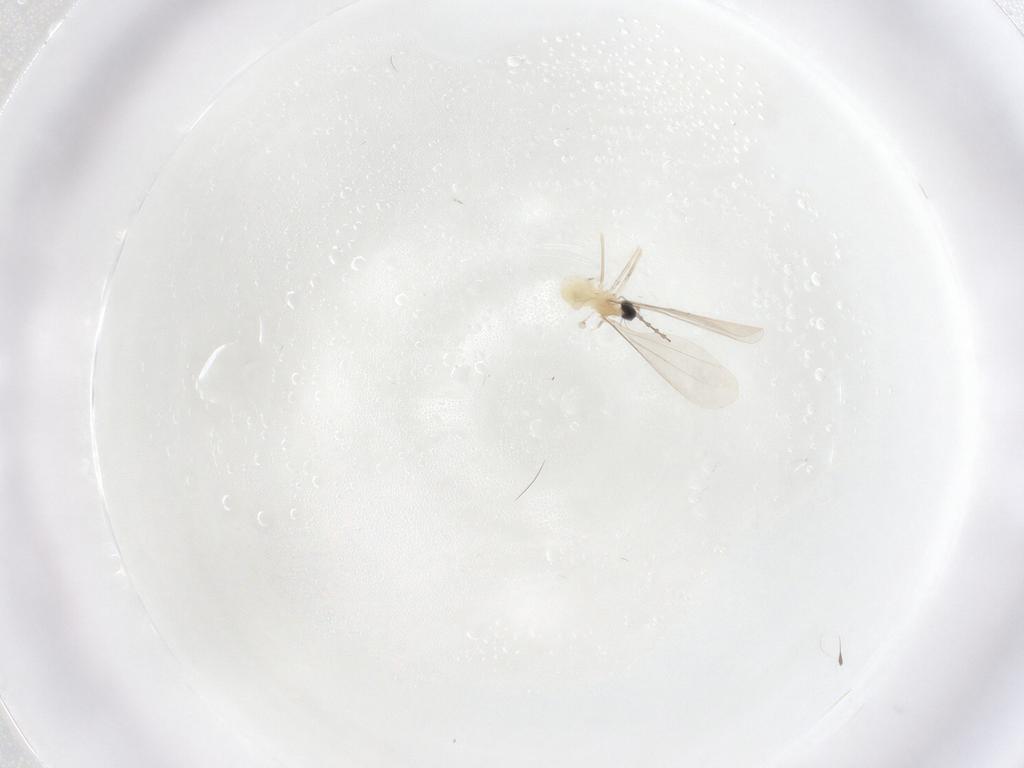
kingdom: Animalia
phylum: Arthropoda
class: Insecta
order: Diptera
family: Cecidomyiidae
